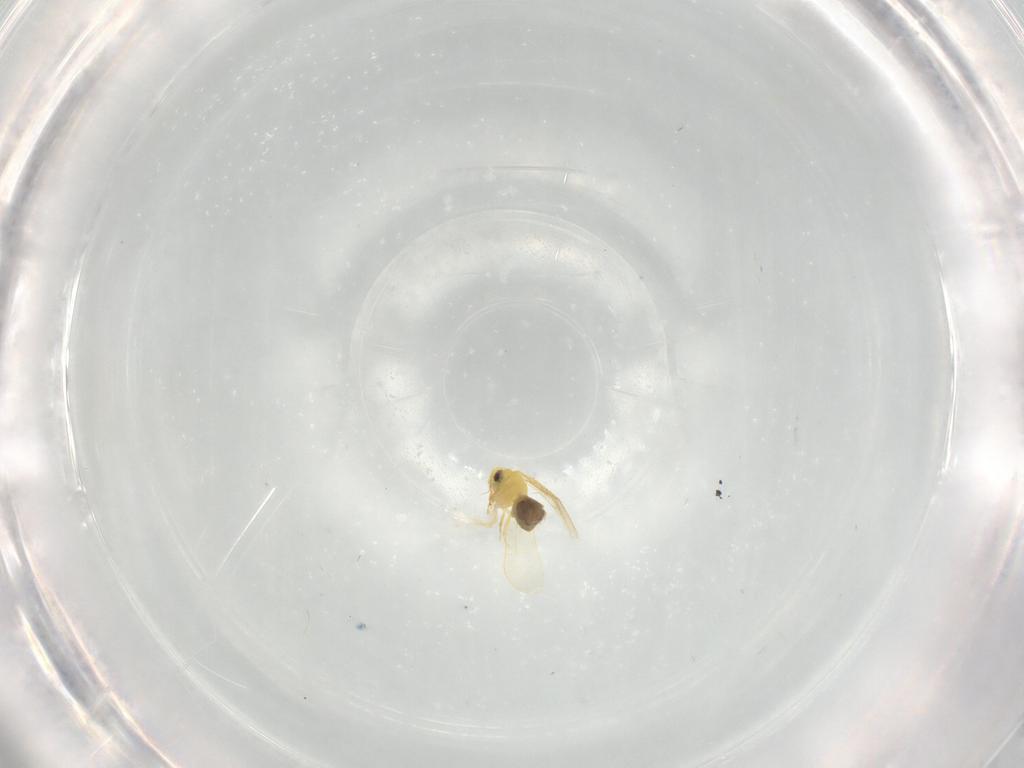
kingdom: Animalia
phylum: Arthropoda
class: Insecta
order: Hemiptera
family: Aleyrodidae
